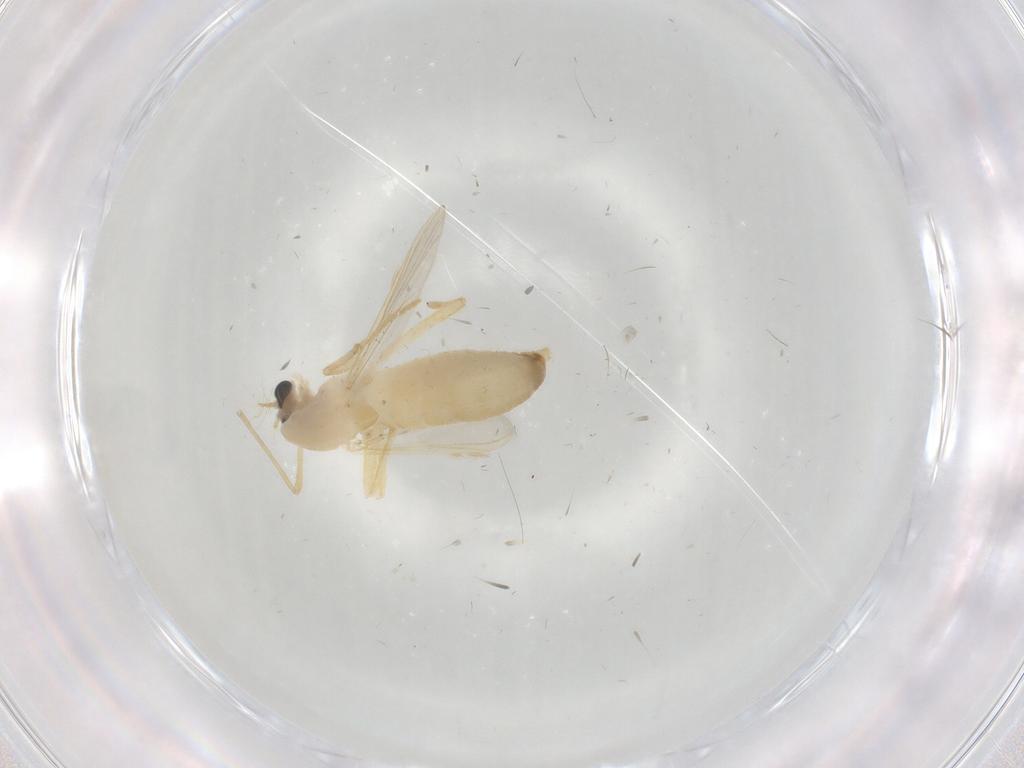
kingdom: Animalia
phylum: Arthropoda
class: Insecta
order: Diptera
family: Chironomidae
